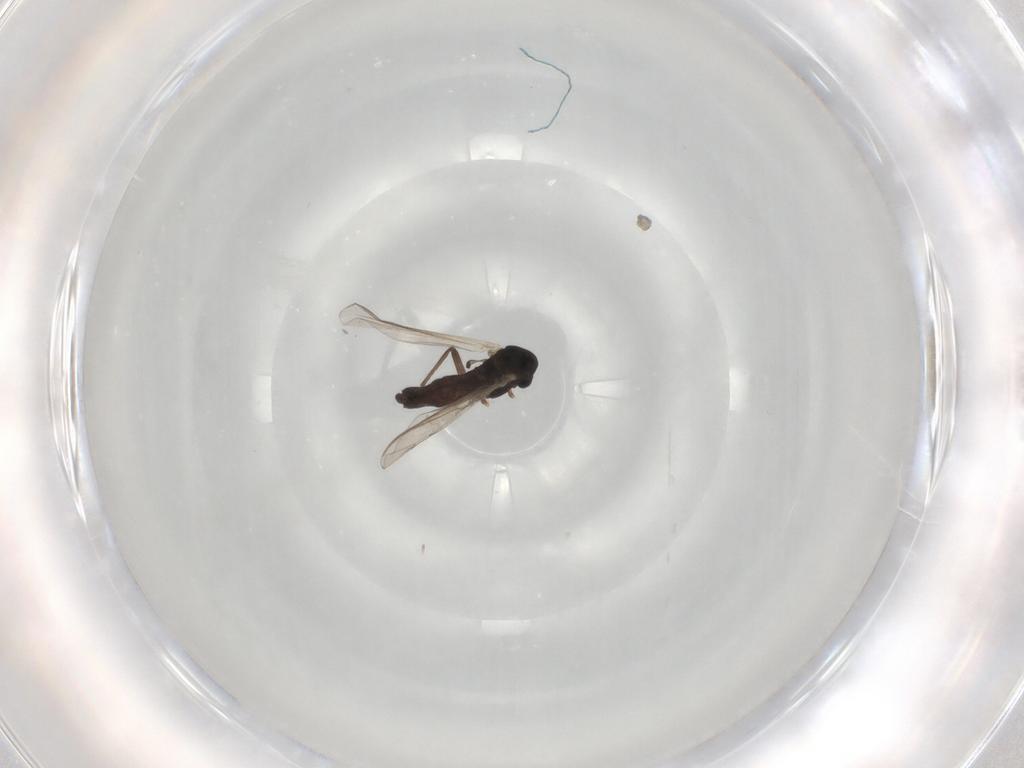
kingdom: Animalia
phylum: Arthropoda
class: Insecta
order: Diptera
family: Chironomidae
